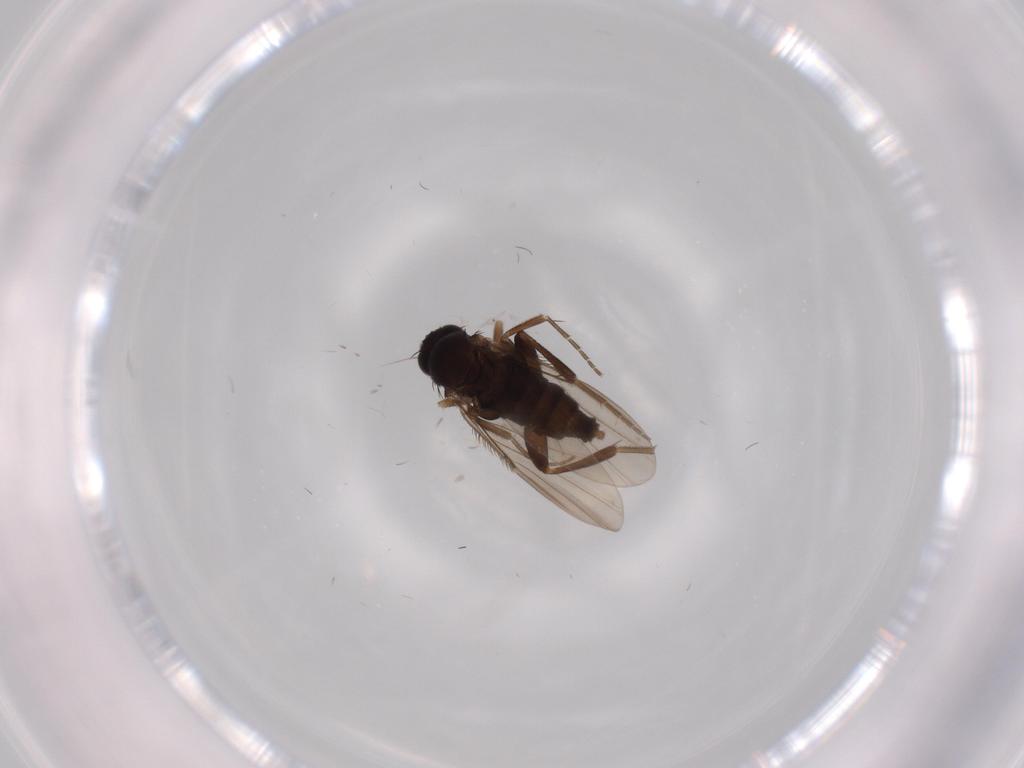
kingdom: Animalia
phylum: Arthropoda
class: Insecta
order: Diptera
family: Phoridae
